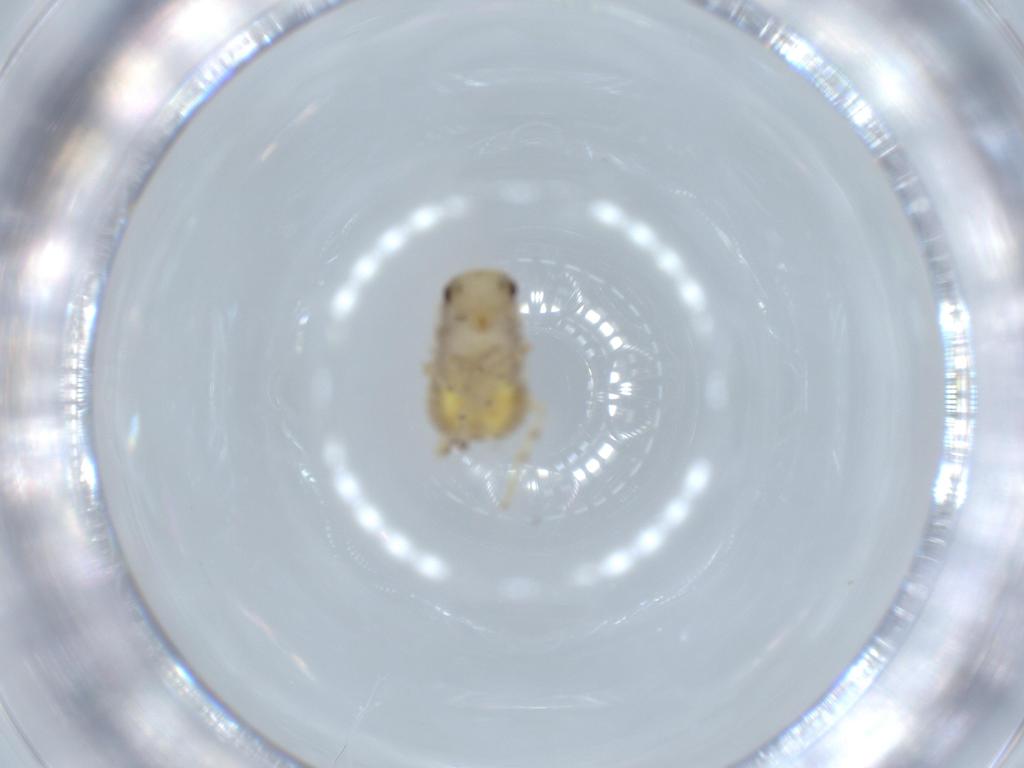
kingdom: Animalia
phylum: Arthropoda
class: Insecta
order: Blattodea
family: Ectobiidae
